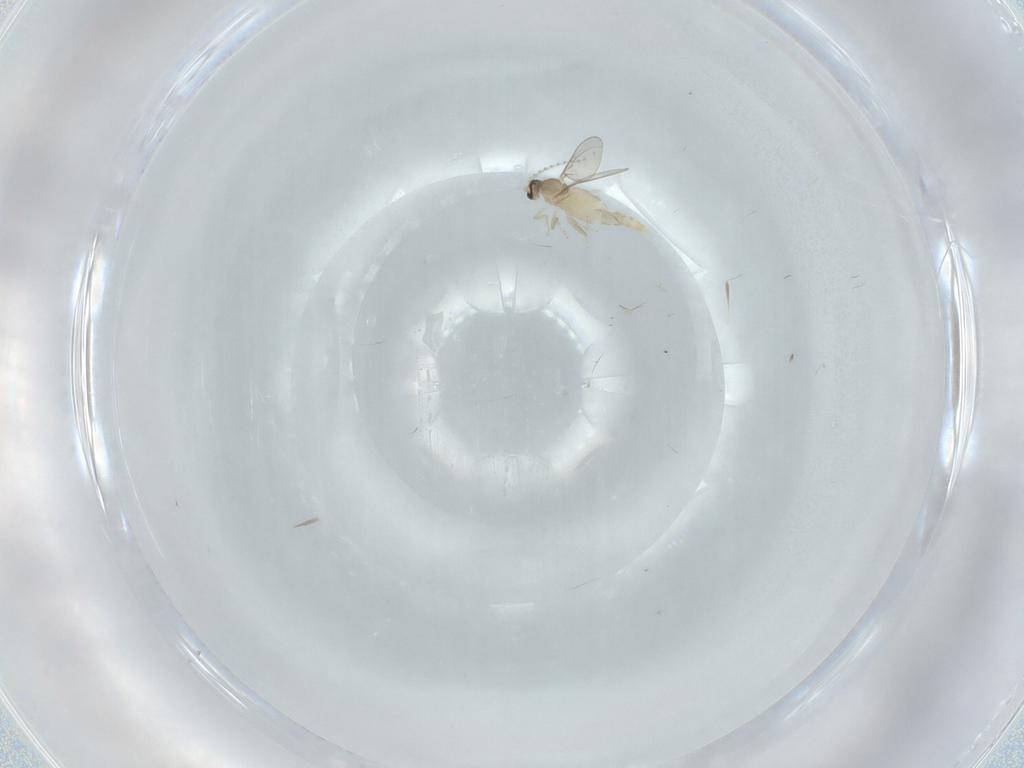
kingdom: Animalia
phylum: Arthropoda
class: Insecta
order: Diptera
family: Cecidomyiidae
